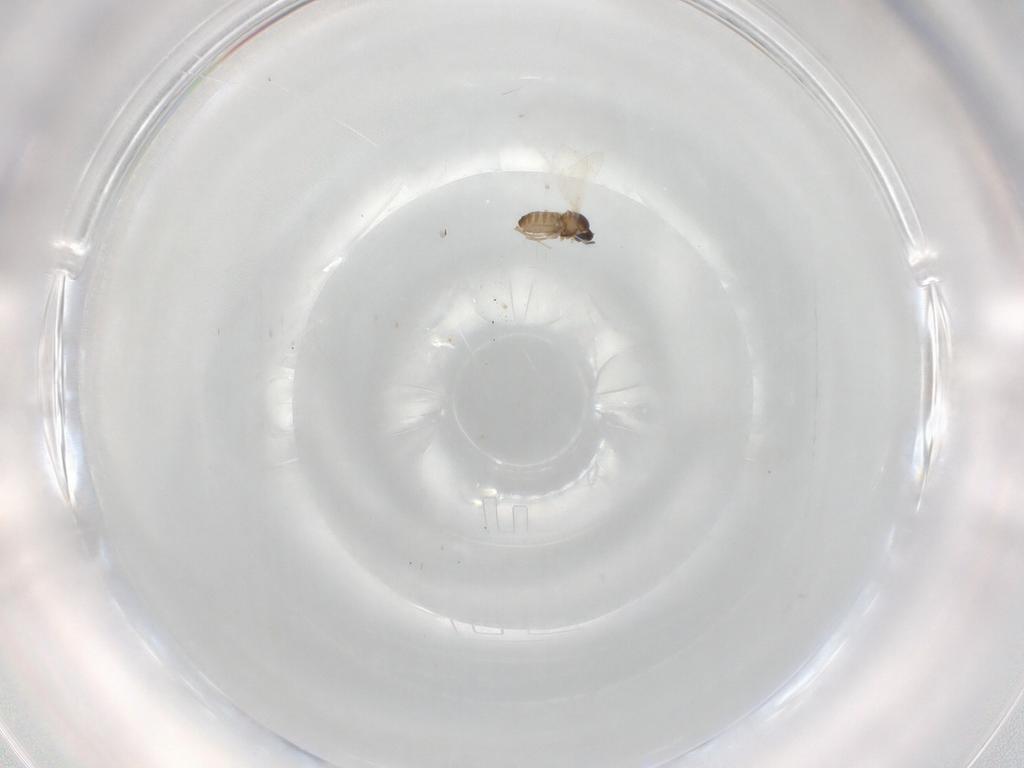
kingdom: Animalia
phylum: Arthropoda
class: Insecta
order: Diptera
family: Cecidomyiidae
